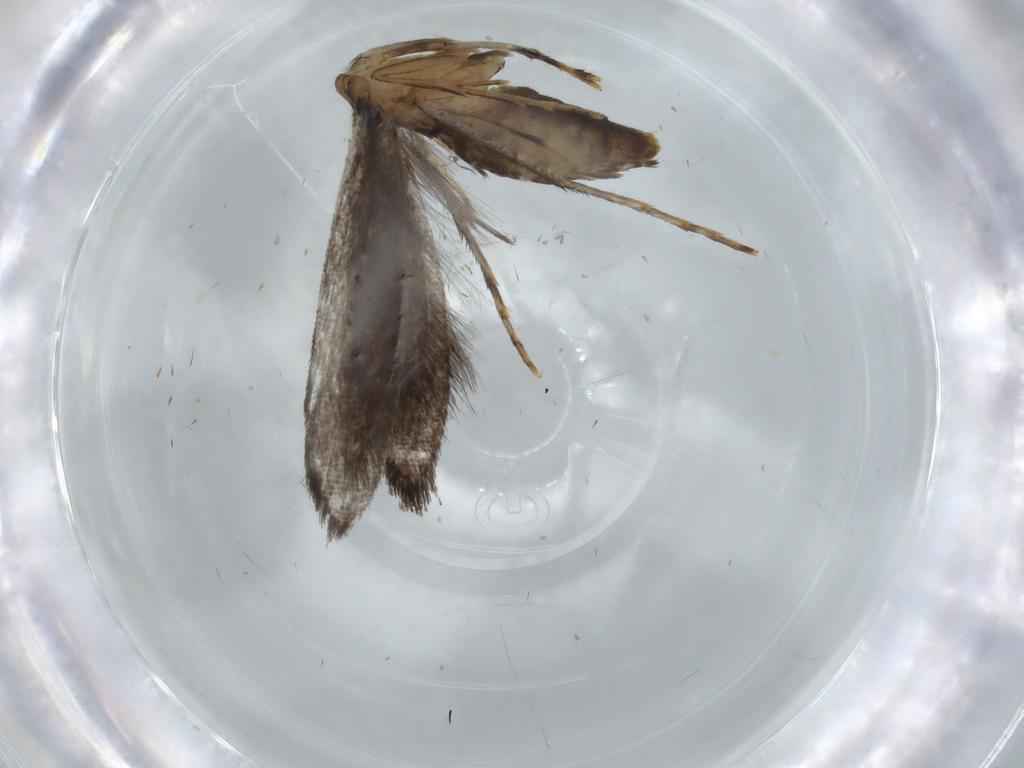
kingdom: Animalia
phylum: Arthropoda
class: Insecta
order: Lepidoptera
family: Tineidae
